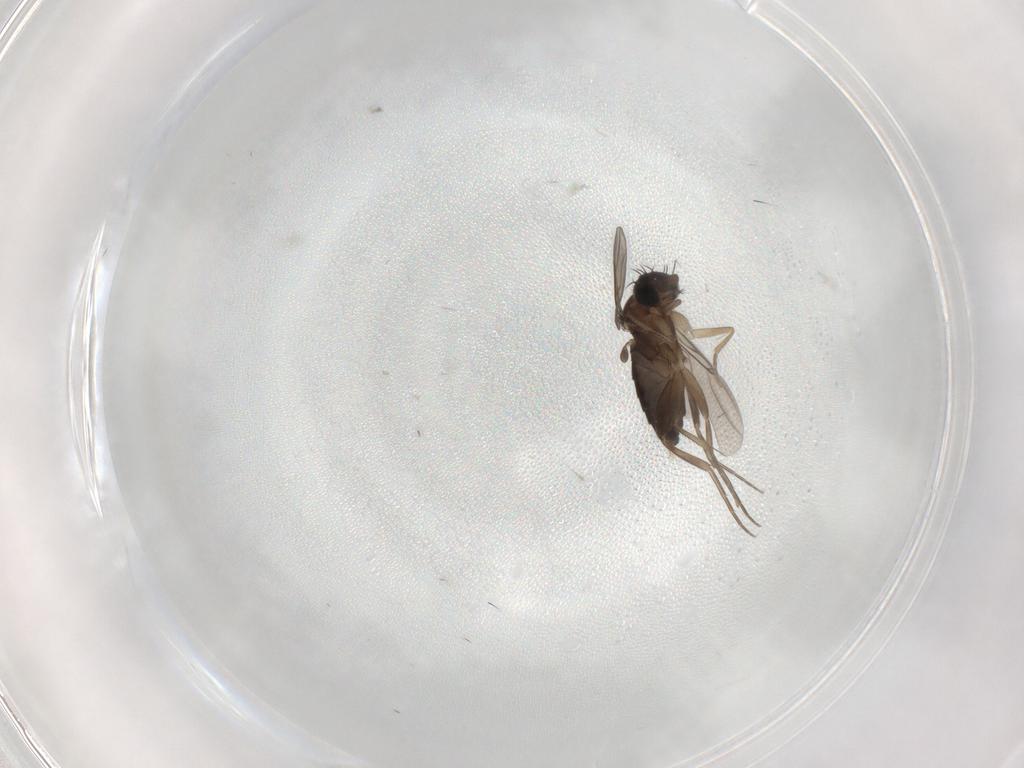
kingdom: Animalia
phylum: Arthropoda
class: Insecta
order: Diptera
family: Phoridae
